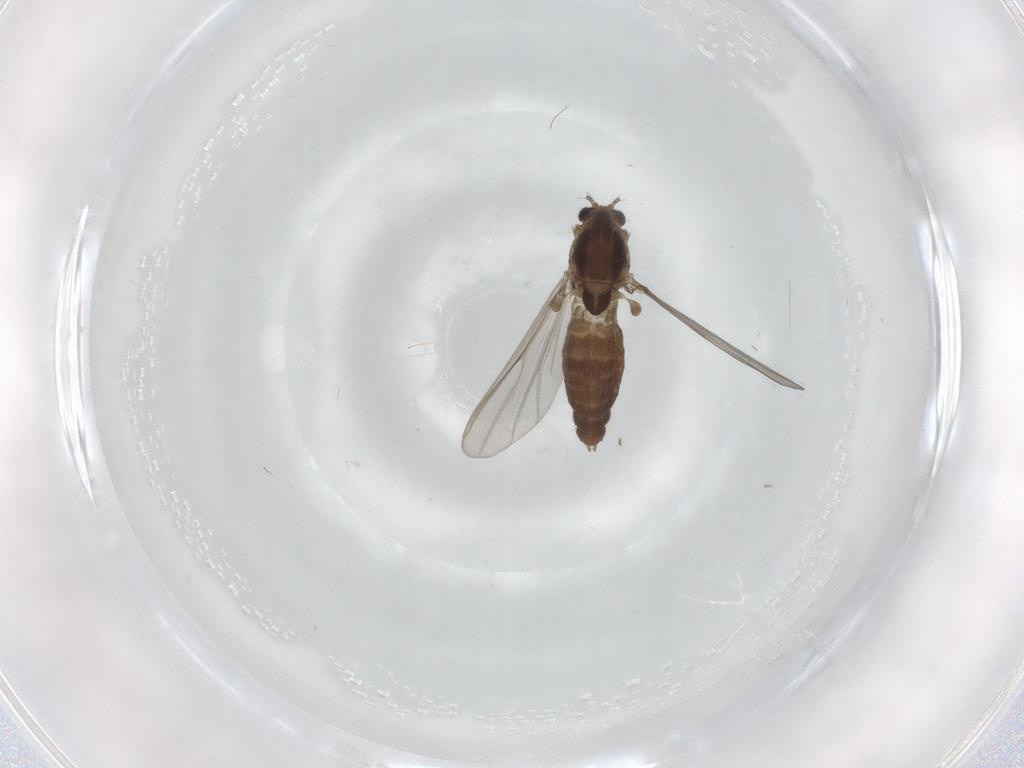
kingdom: Animalia
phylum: Arthropoda
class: Insecta
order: Diptera
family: Chironomidae
